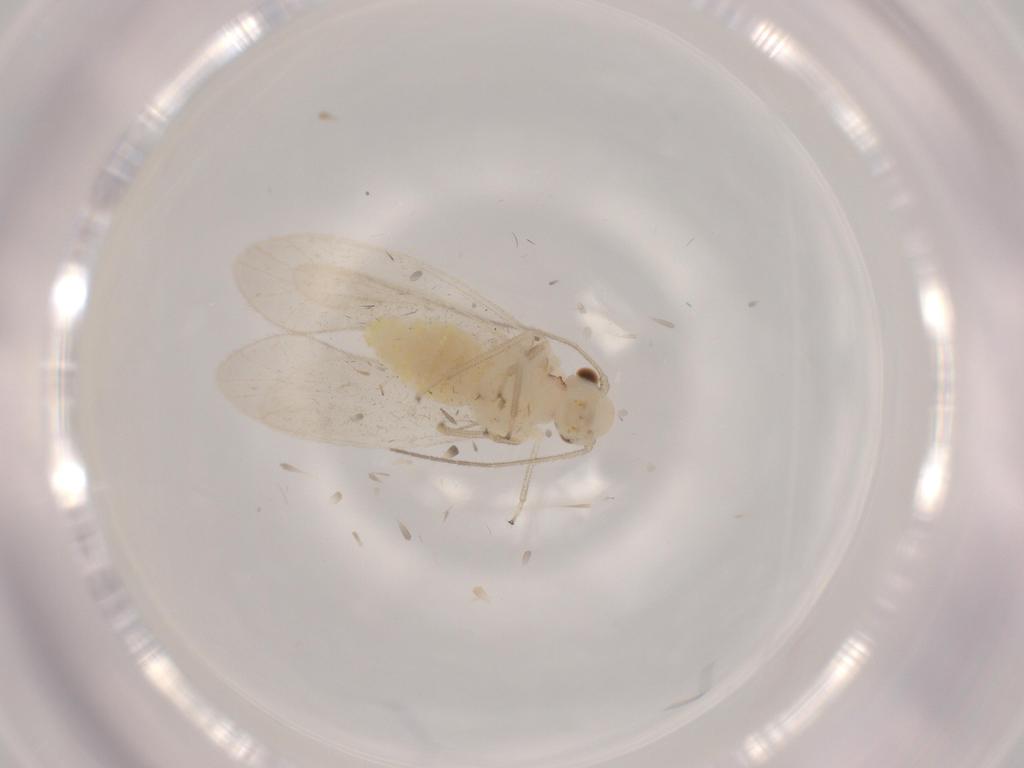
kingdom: Animalia
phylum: Arthropoda
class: Insecta
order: Psocodea
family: Caeciliusidae
